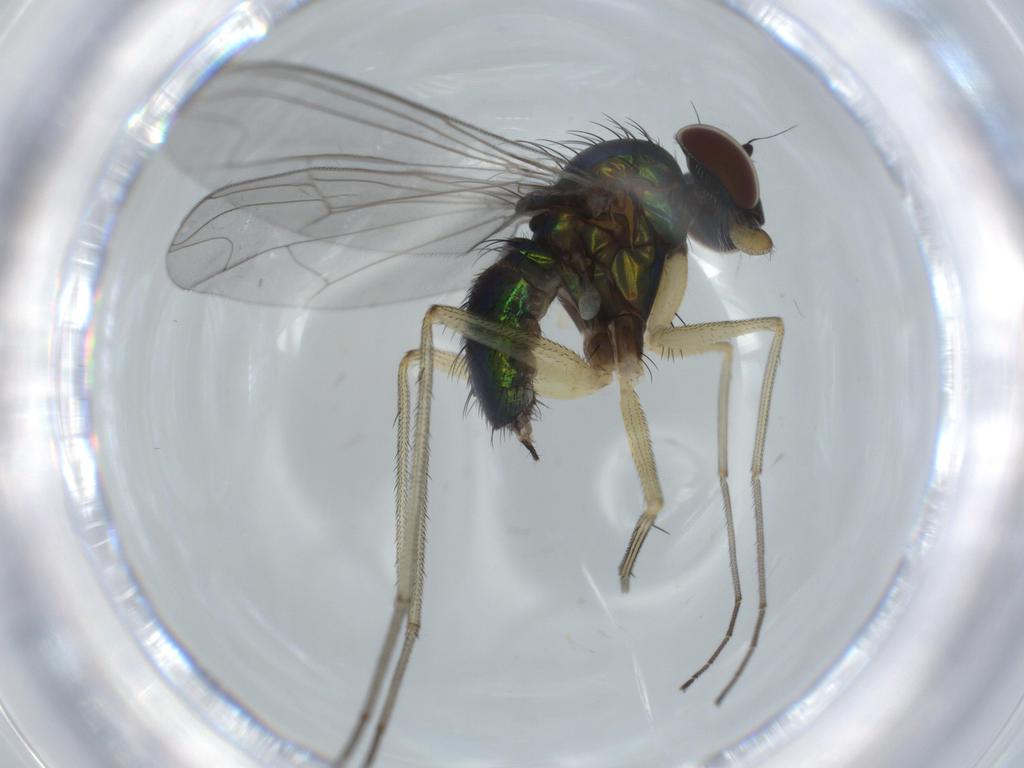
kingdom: Animalia
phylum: Arthropoda
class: Insecta
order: Diptera
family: Dolichopodidae
